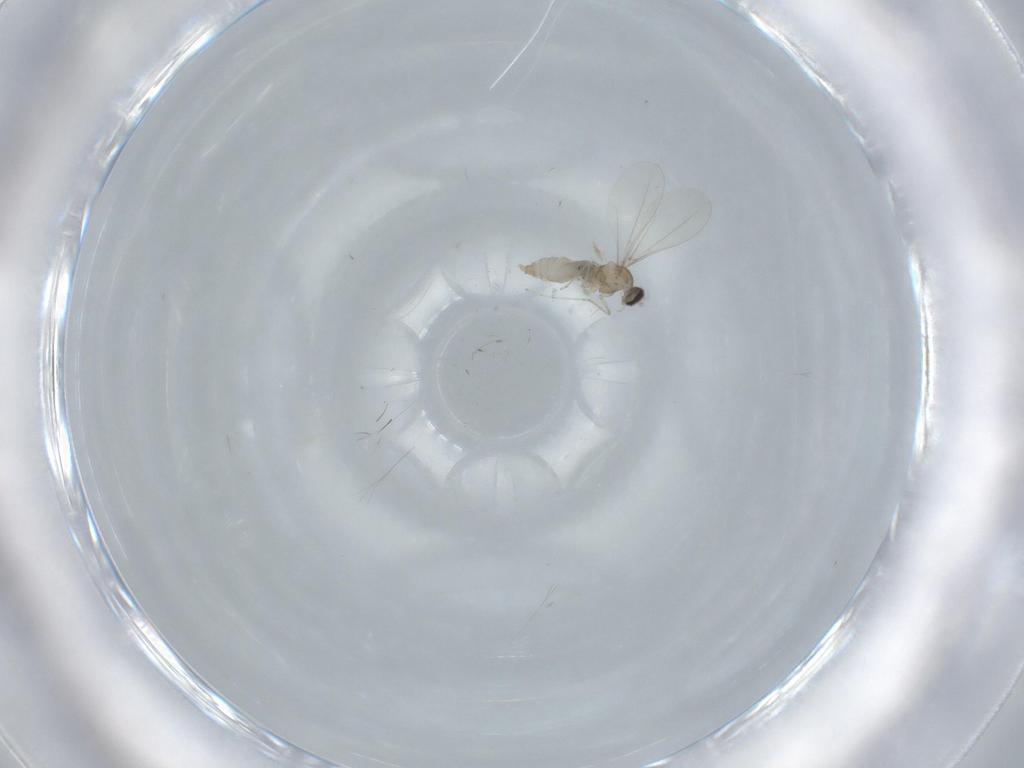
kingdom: Animalia
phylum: Arthropoda
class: Insecta
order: Diptera
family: Cecidomyiidae
